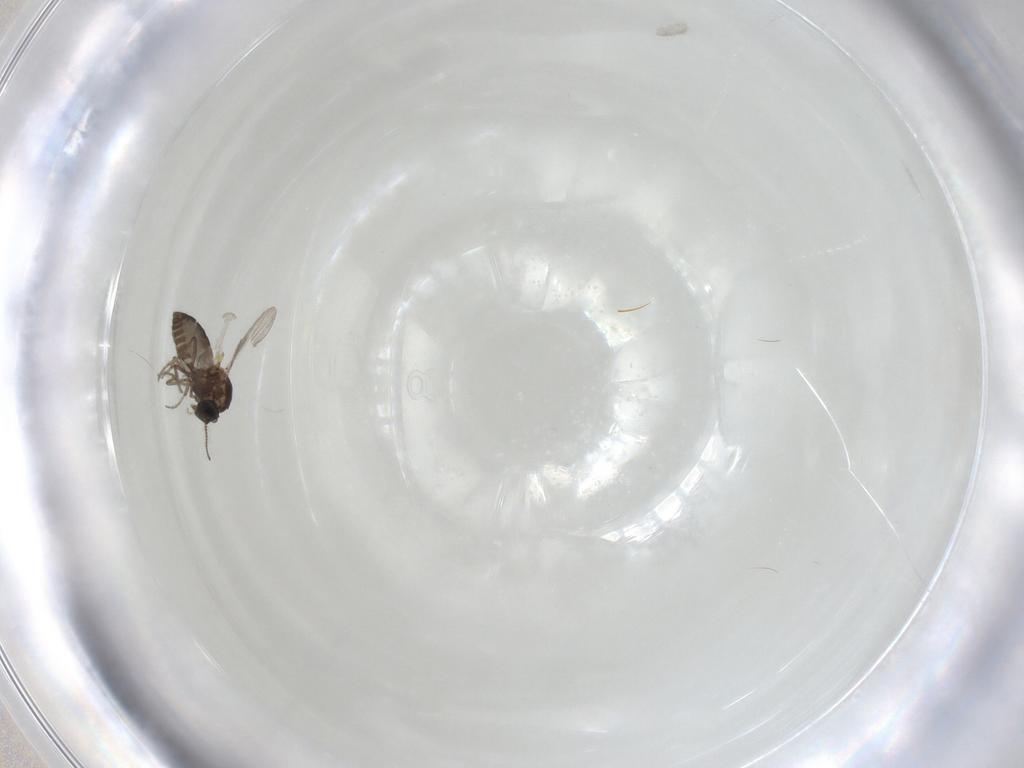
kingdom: Animalia
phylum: Arthropoda
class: Insecta
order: Diptera
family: Ceratopogonidae
